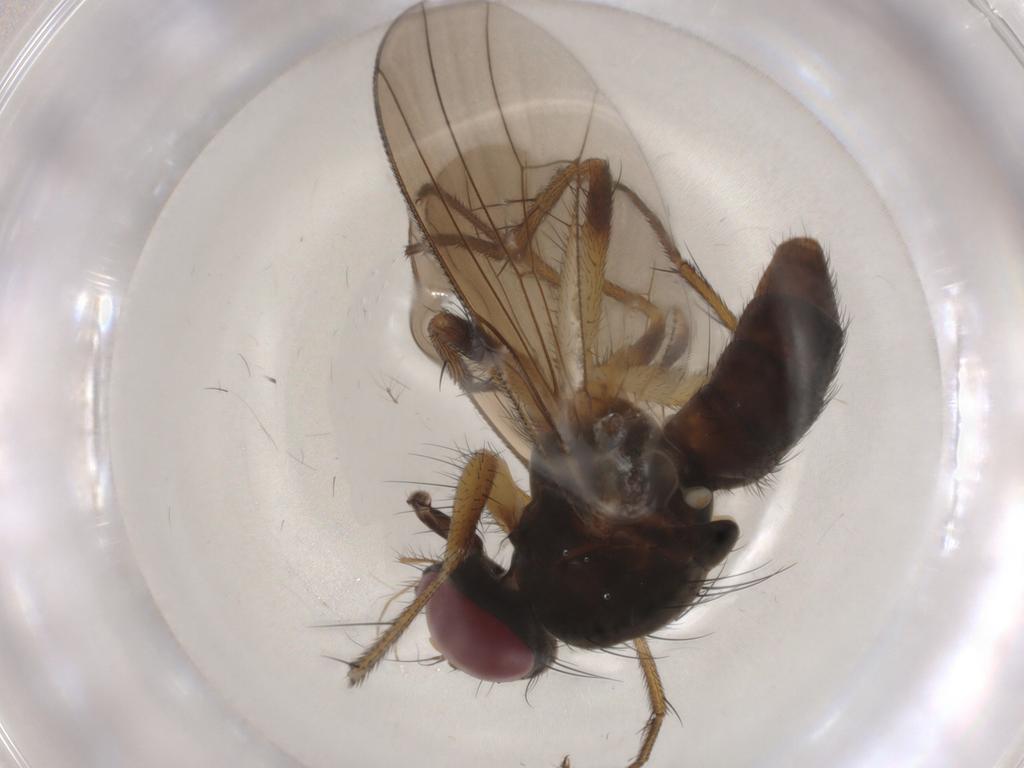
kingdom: Animalia
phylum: Arthropoda
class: Insecta
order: Diptera
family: Muscidae
